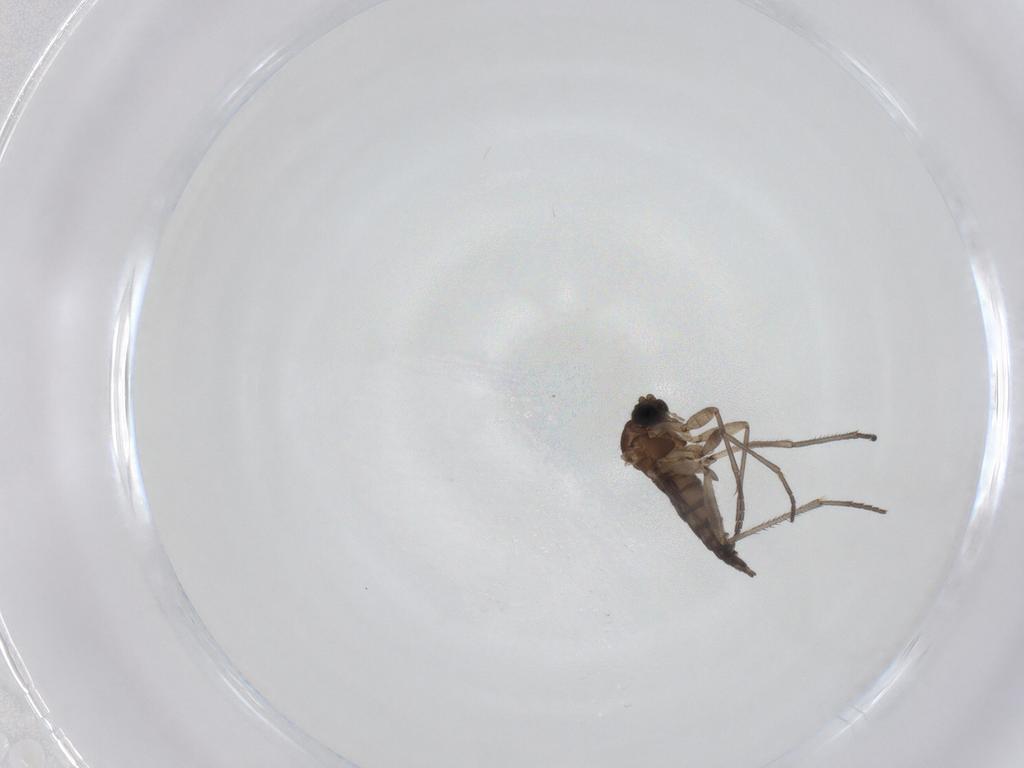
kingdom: Animalia
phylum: Arthropoda
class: Insecta
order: Diptera
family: Sciaridae
